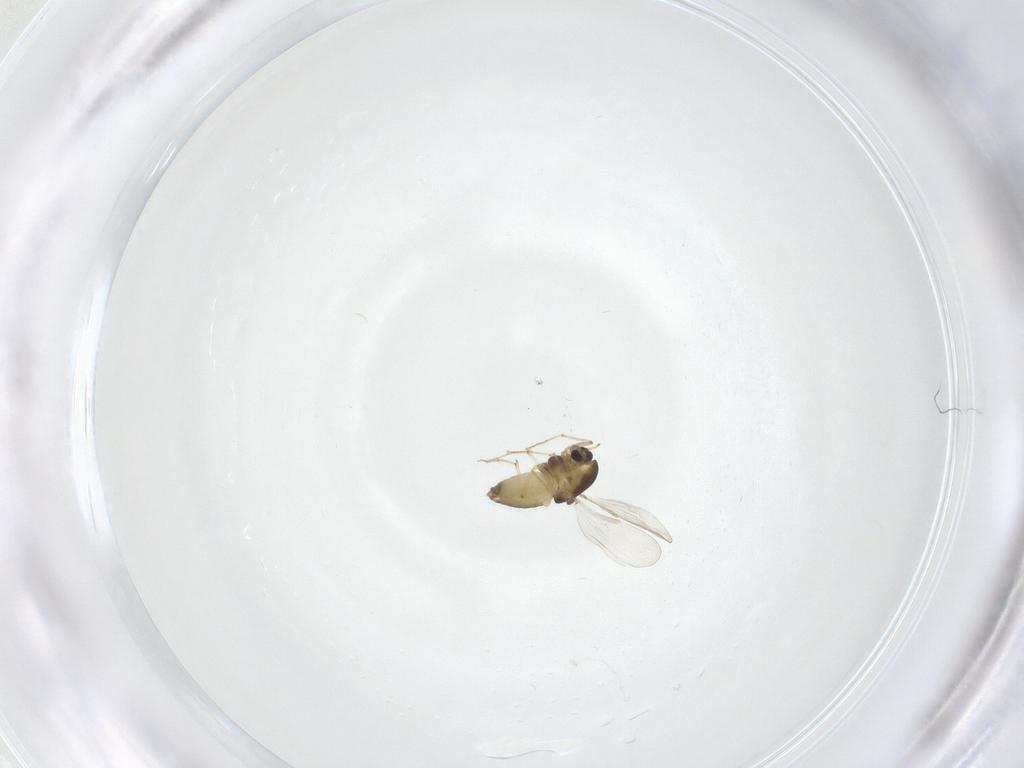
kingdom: Animalia
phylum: Arthropoda
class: Insecta
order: Diptera
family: Chironomidae
